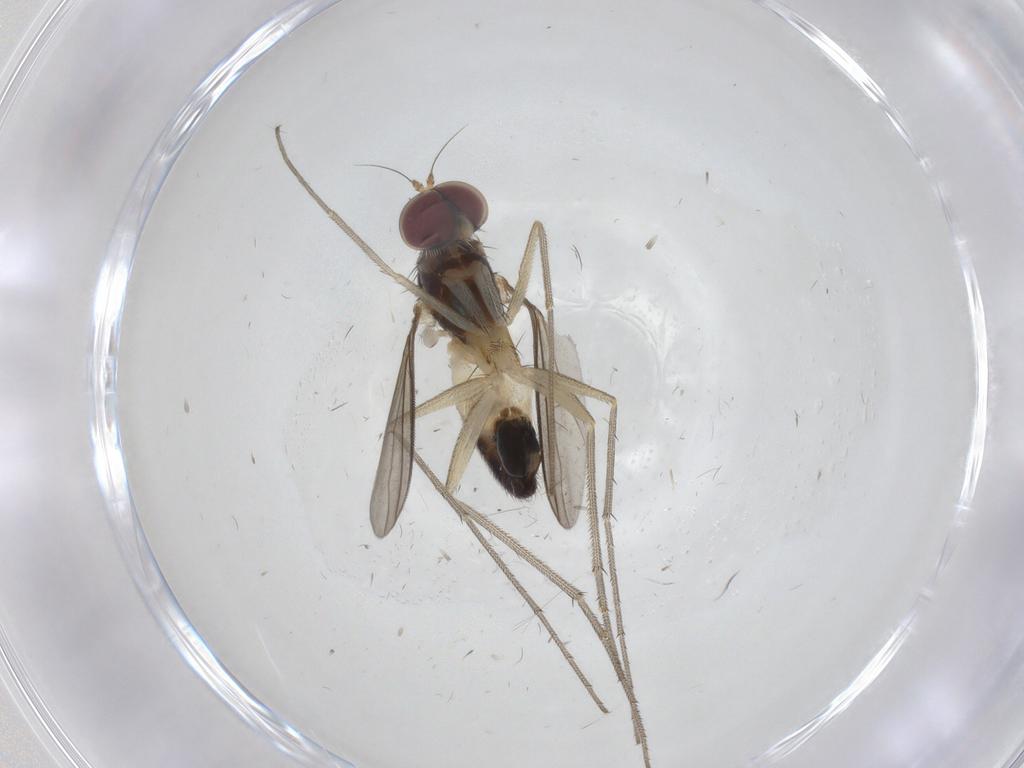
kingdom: Animalia
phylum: Arthropoda
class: Insecta
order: Diptera
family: Dolichopodidae
